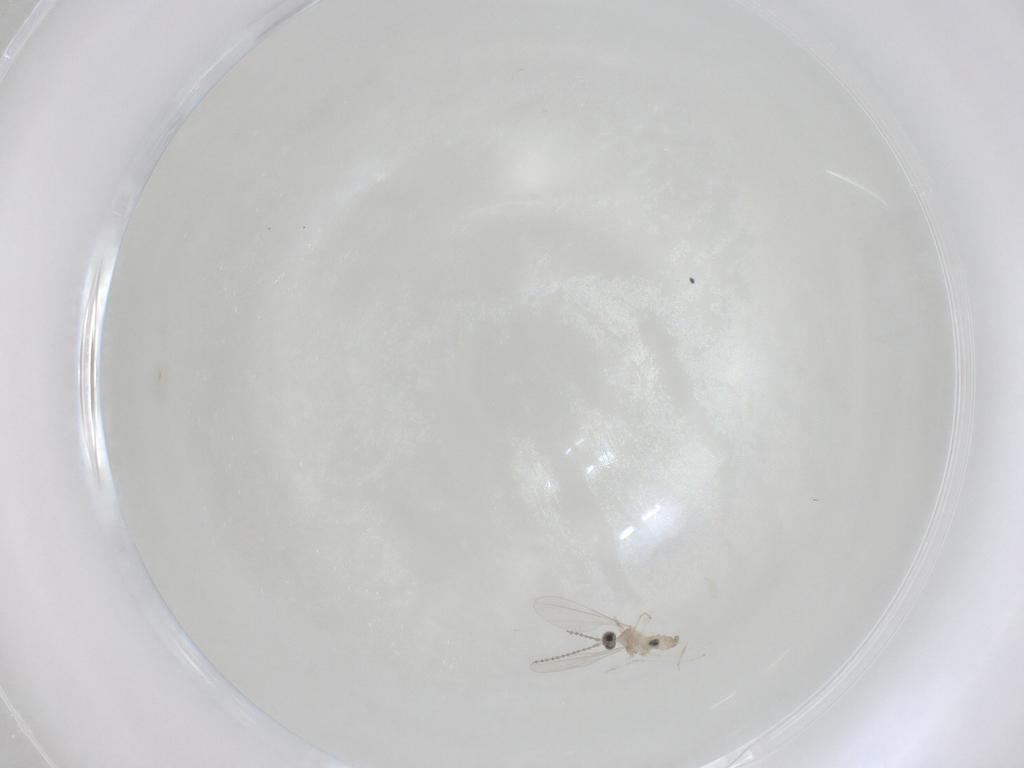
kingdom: Animalia
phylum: Arthropoda
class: Insecta
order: Diptera
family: Cecidomyiidae
